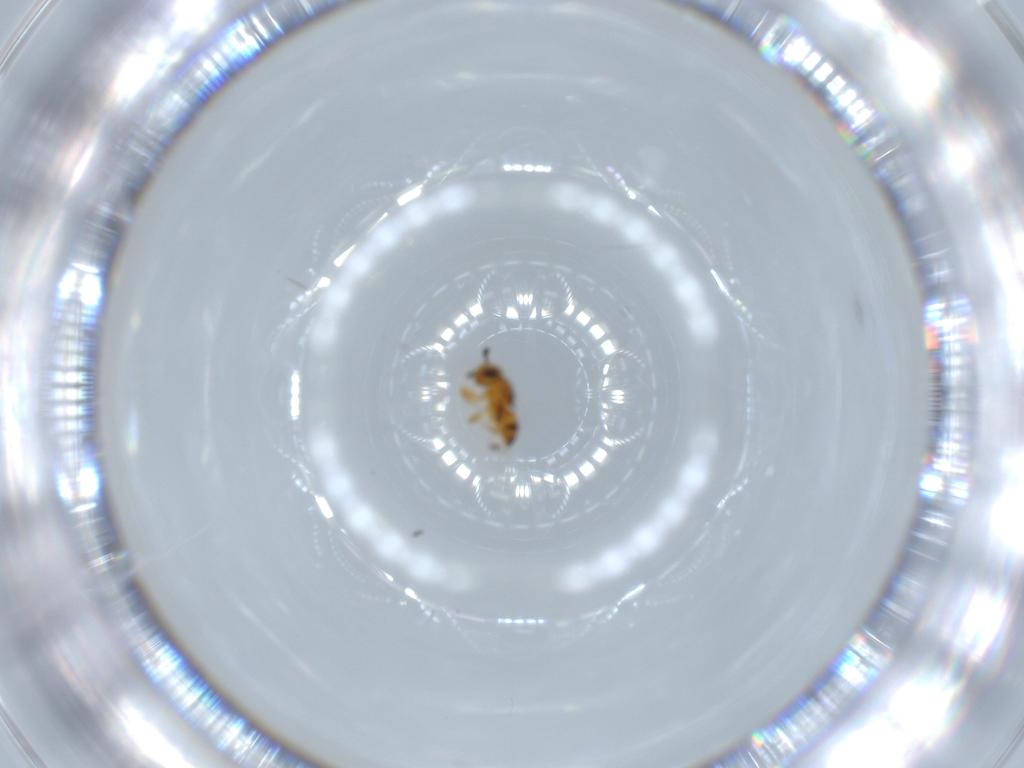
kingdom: Animalia
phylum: Arthropoda
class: Insecta
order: Hymenoptera
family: Scelionidae
